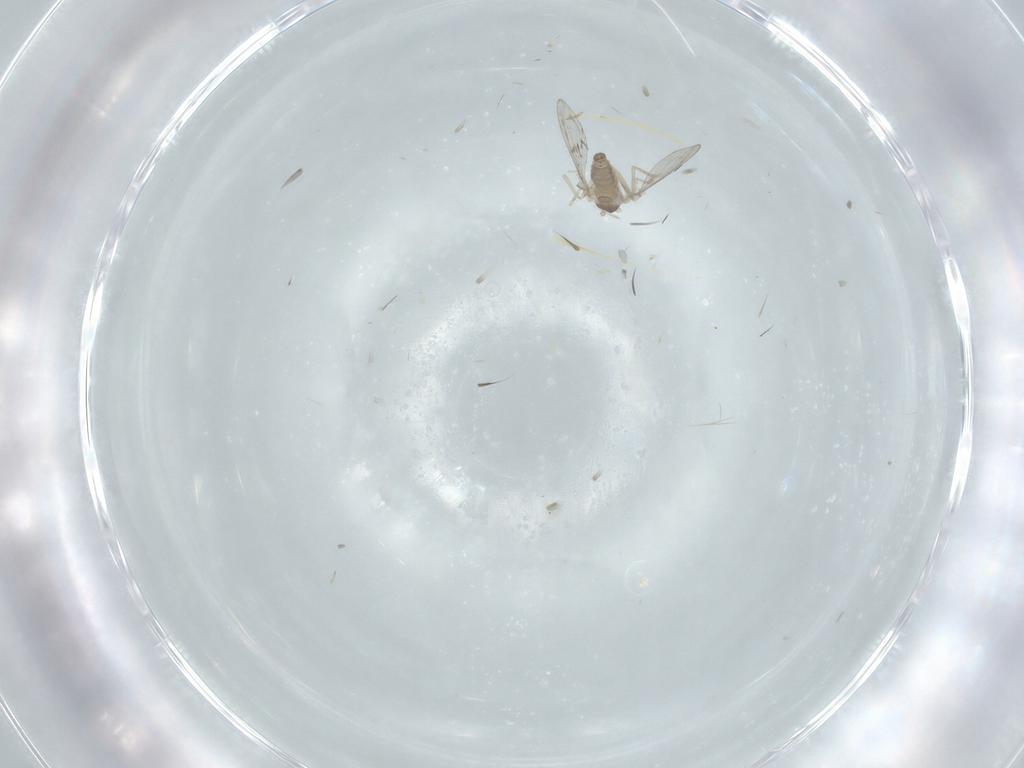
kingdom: Animalia
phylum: Arthropoda
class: Insecta
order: Diptera
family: Cecidomyiidae
